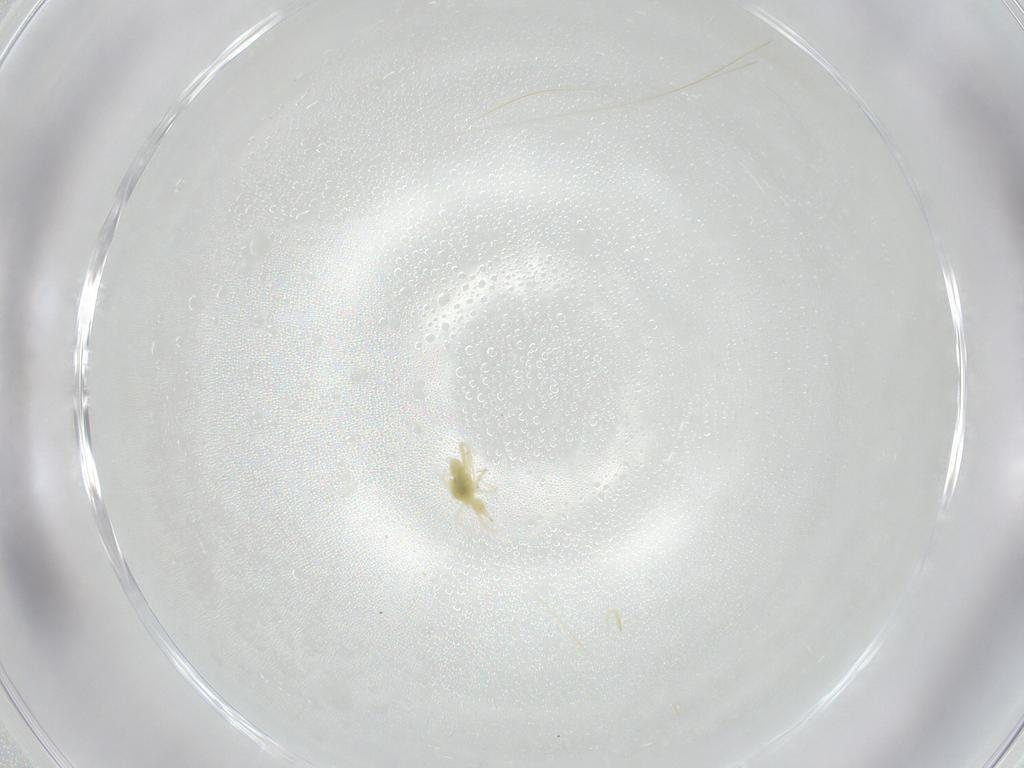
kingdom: Animalia
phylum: Arthropoda
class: Arachnida
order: Trombidiformes
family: Cunaxidae
